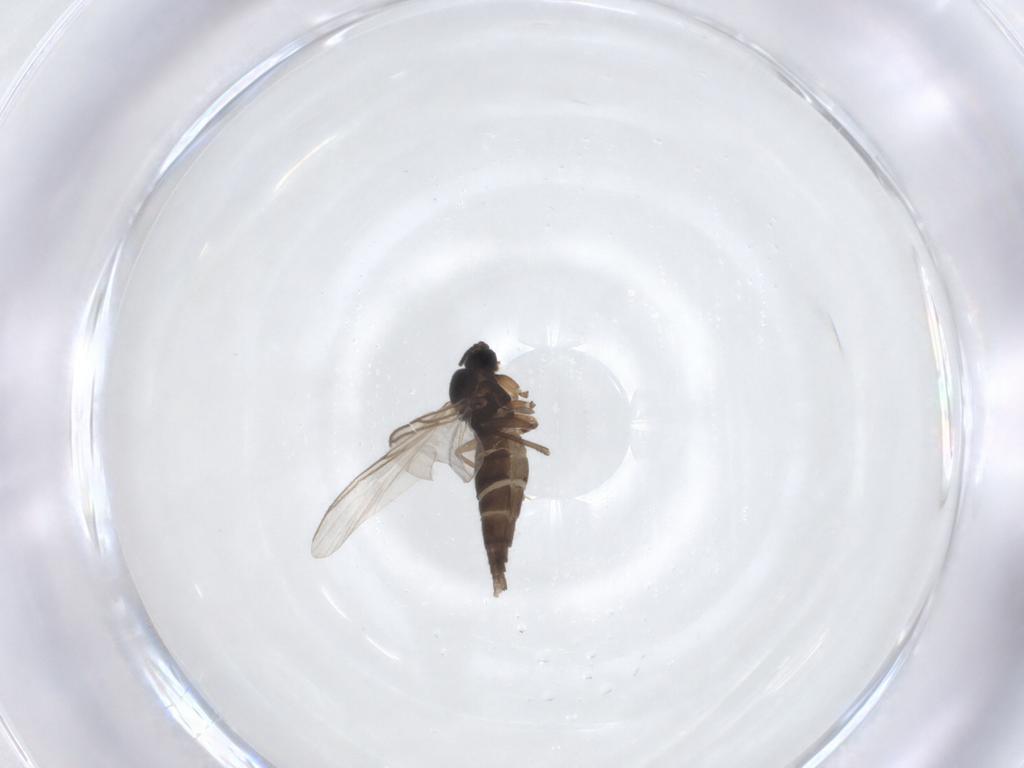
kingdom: Animalia
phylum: Arthropoda
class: Insecta
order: Diptera
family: Sciaridae
